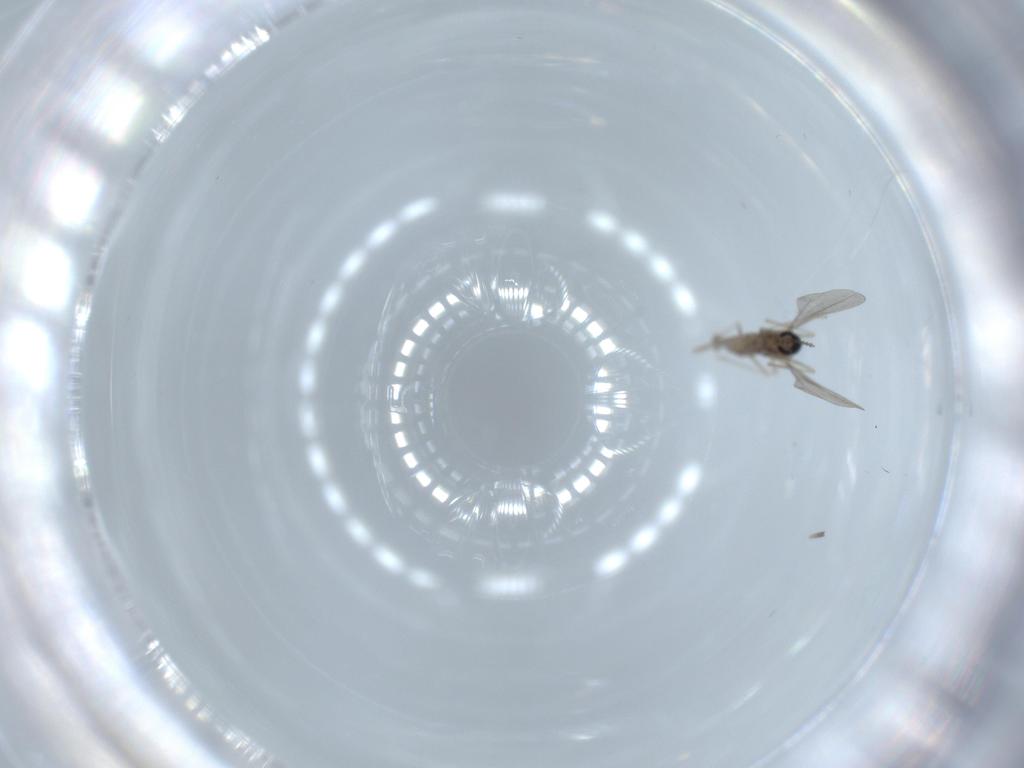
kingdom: Animalia
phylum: Arthropoda
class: Insecta
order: Diptera
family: Cecidomyiidae
